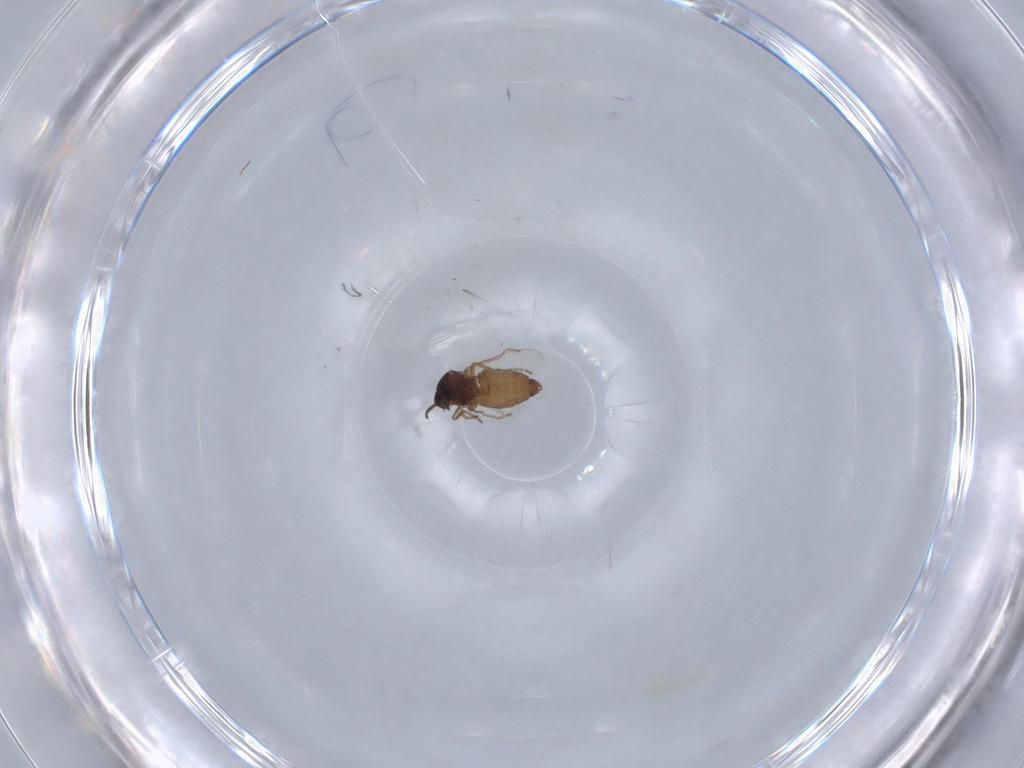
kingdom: Animalia
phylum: Arthropoda
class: Insecta
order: Diptera
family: Ceratopogonidae
